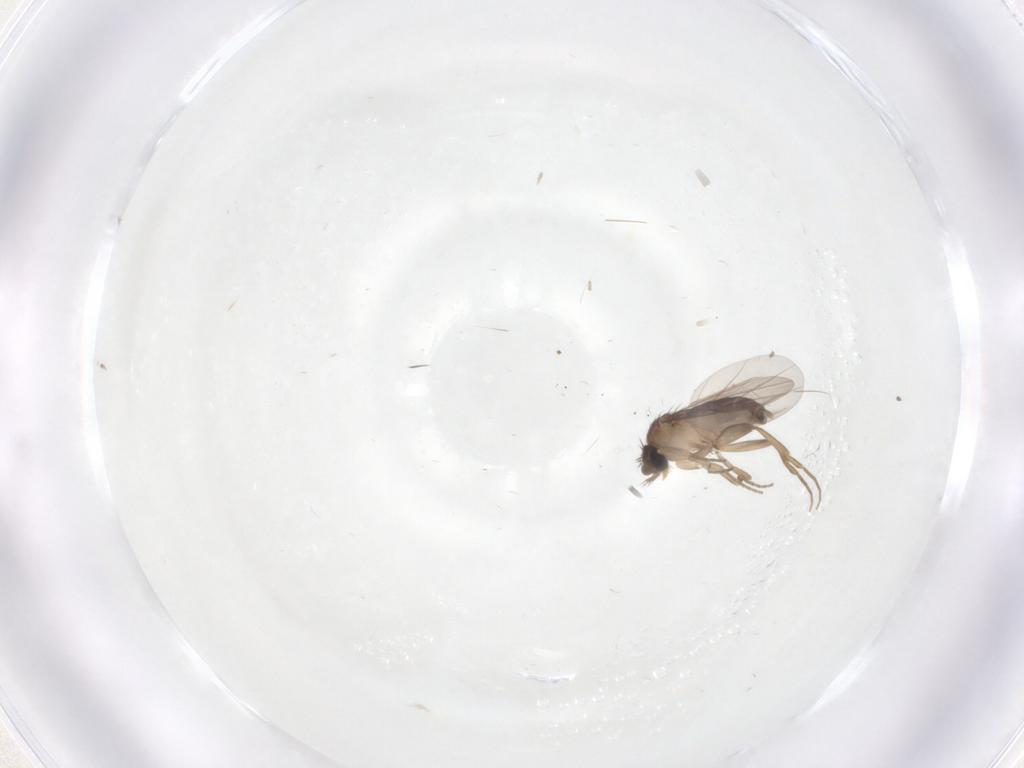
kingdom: Animalia
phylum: Arthropoda
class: Insecta
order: Diptera
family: Phoridae
